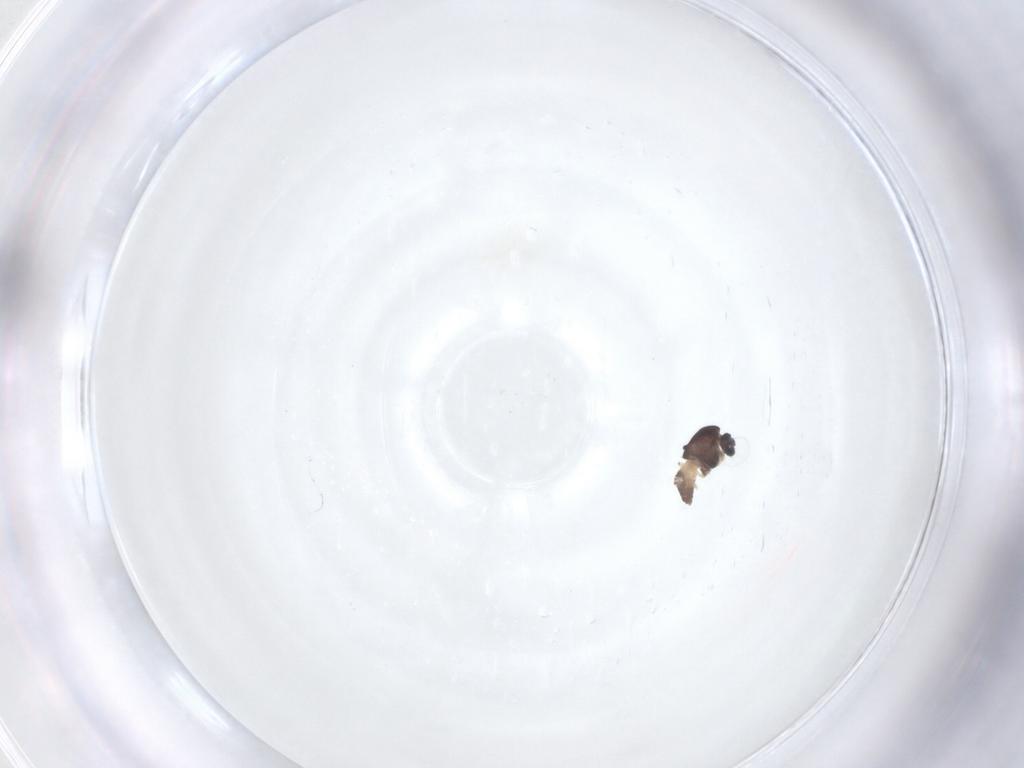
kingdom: Animalia
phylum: Arthropoda
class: Insecta
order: Diptera
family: Chironomidae
